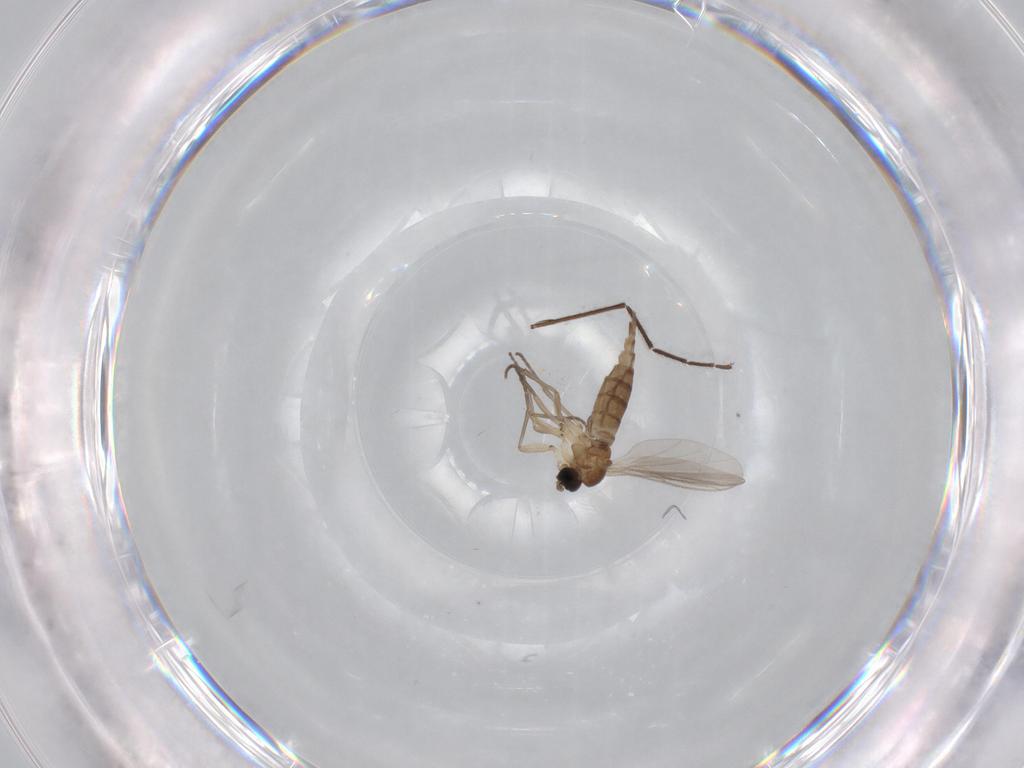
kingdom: Animalia
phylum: Arthropoda
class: Insecta
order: Diptera
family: Sciaridae
